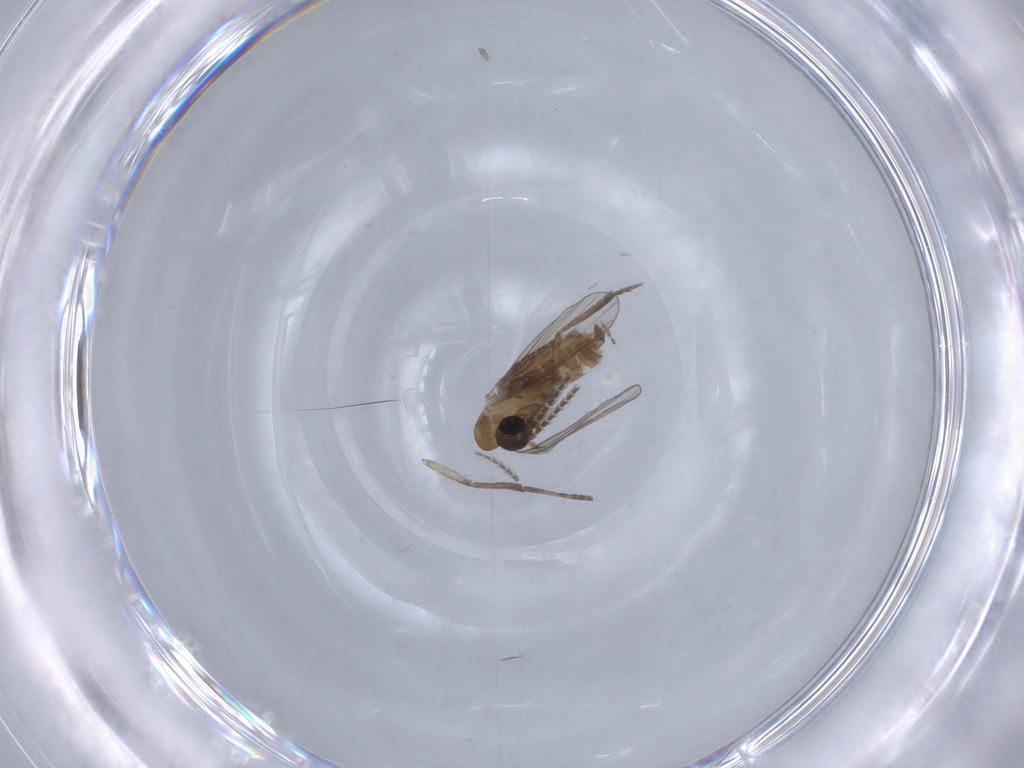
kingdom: Animalia
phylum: Arthropoda
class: Insecta
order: Diptera
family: Psychodidae
